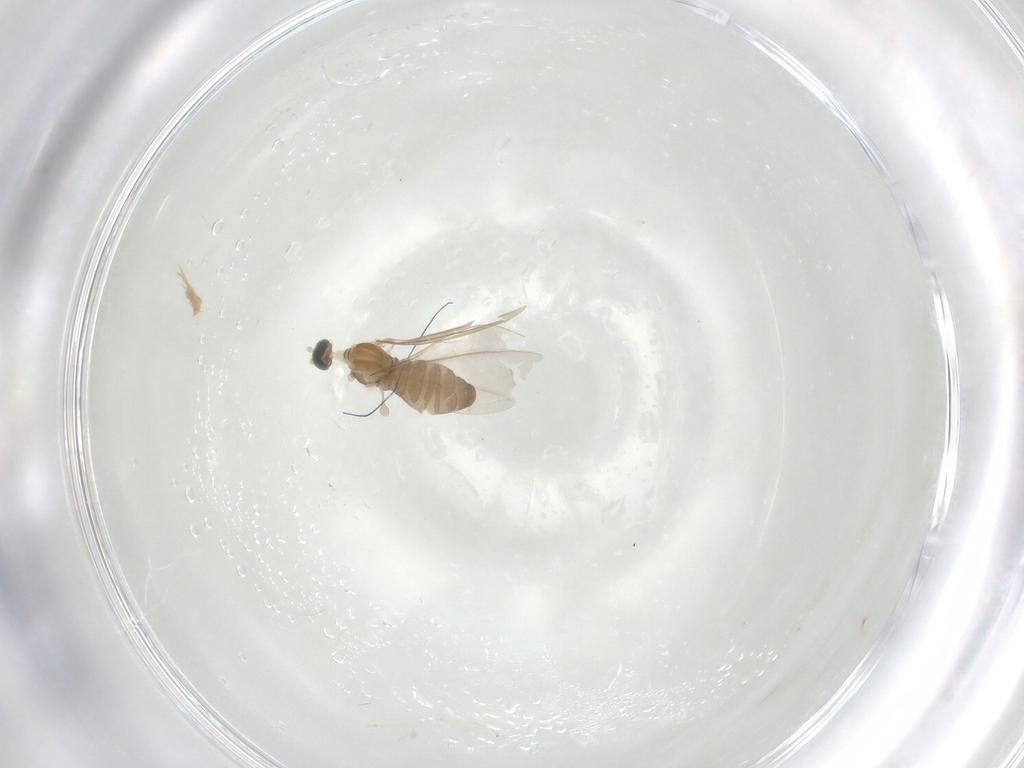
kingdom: Animalia
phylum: Arthropoda
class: Insecta
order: Diptera
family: Cecidomyiidae
